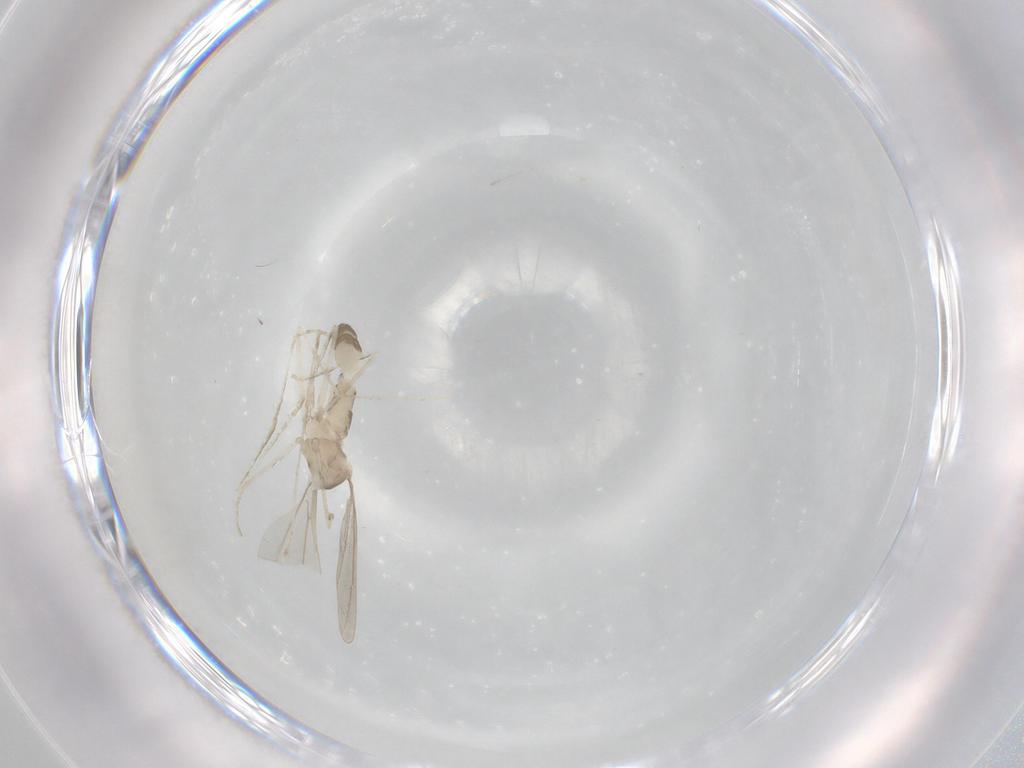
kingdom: Animalia
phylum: Arthropoda
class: Insecta
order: Diptera
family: Cecidomyiidae
